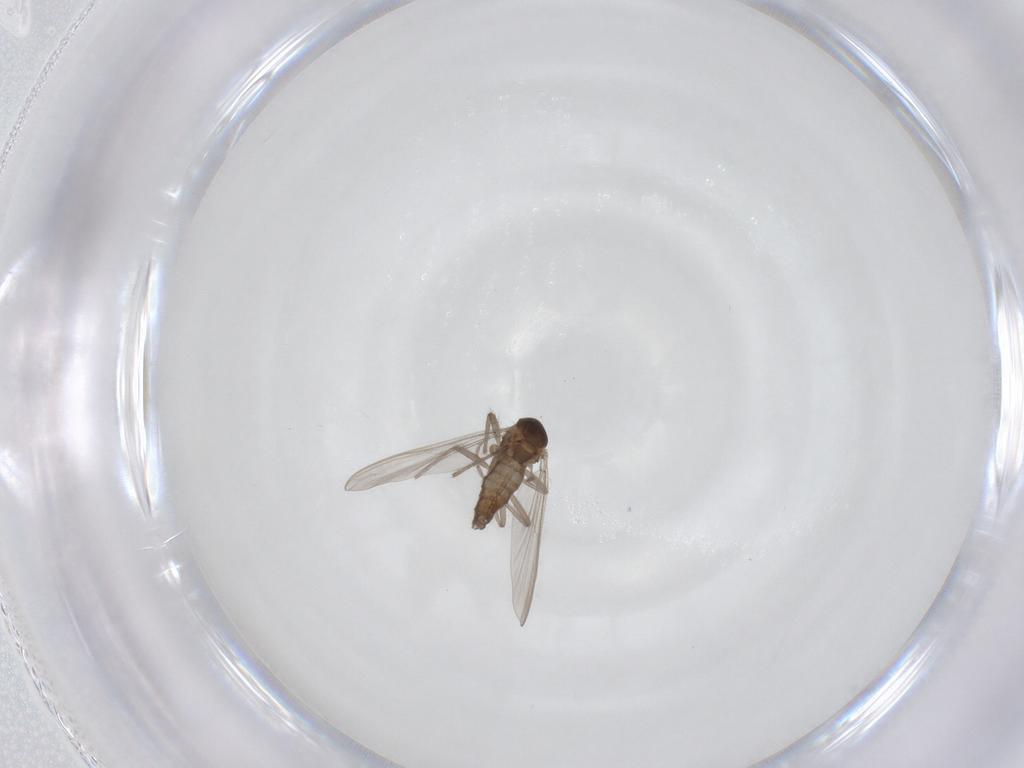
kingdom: Animalia
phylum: Arthropoda
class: Insecta
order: Diptera
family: Chironomidae
